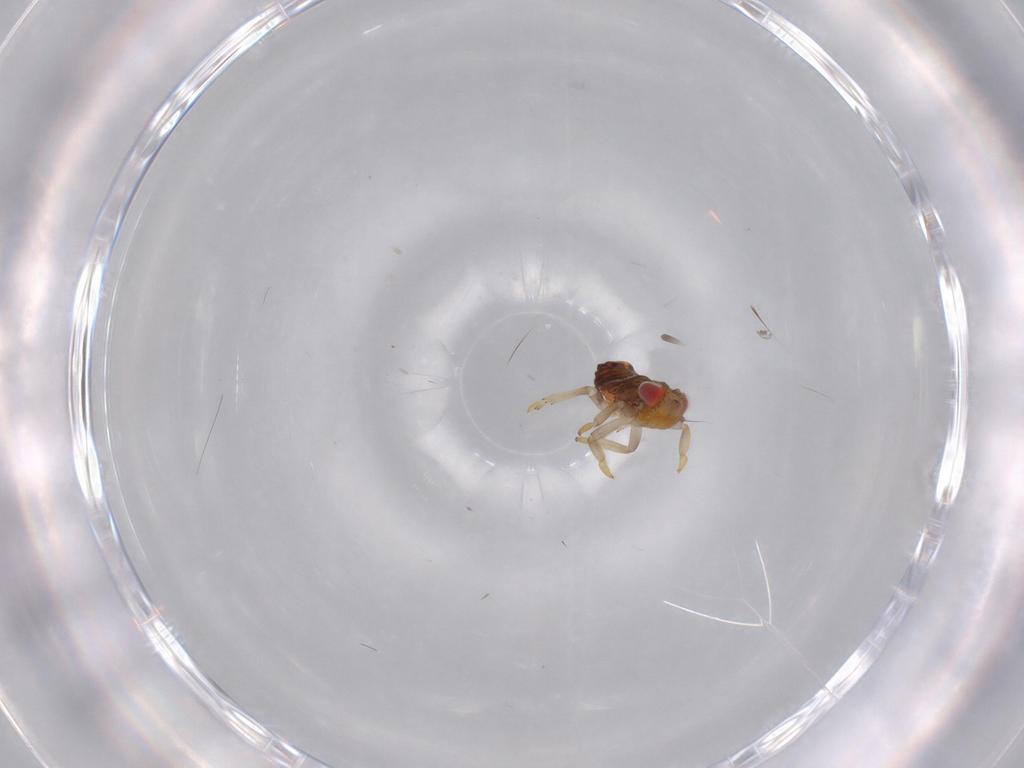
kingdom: Animalia
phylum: Arthropoda
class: Insecta
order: Hemiptera
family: Issidae
